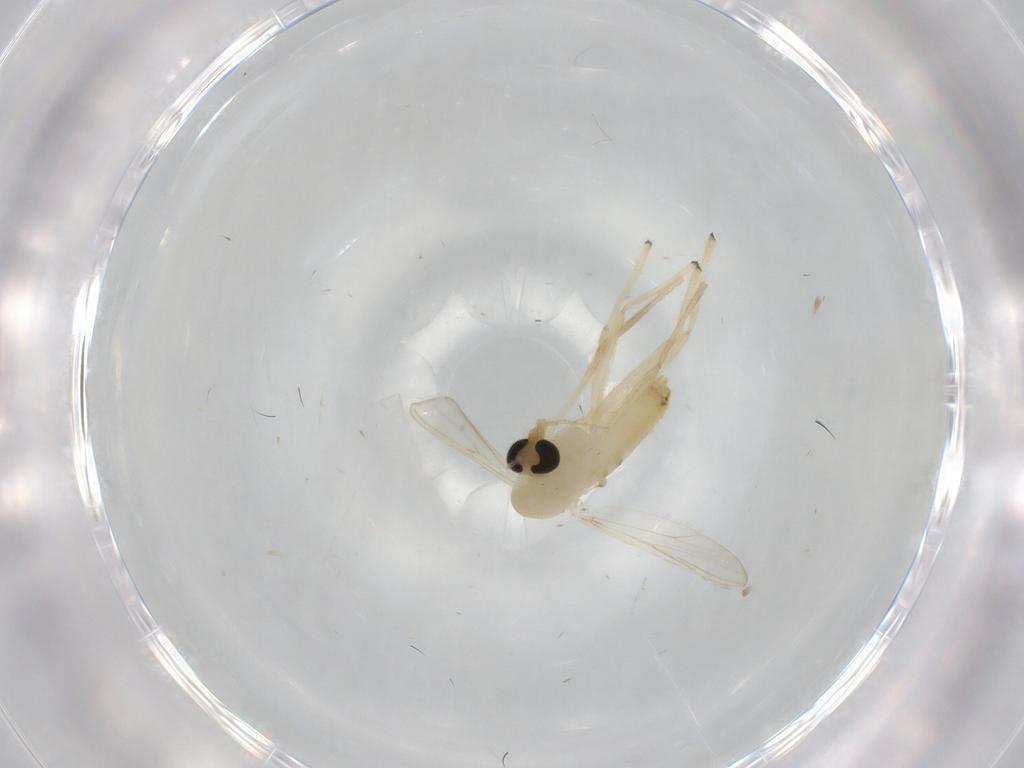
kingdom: Animalia
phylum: Arthropoda
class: Insecta
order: Diptera
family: Chironomidae
